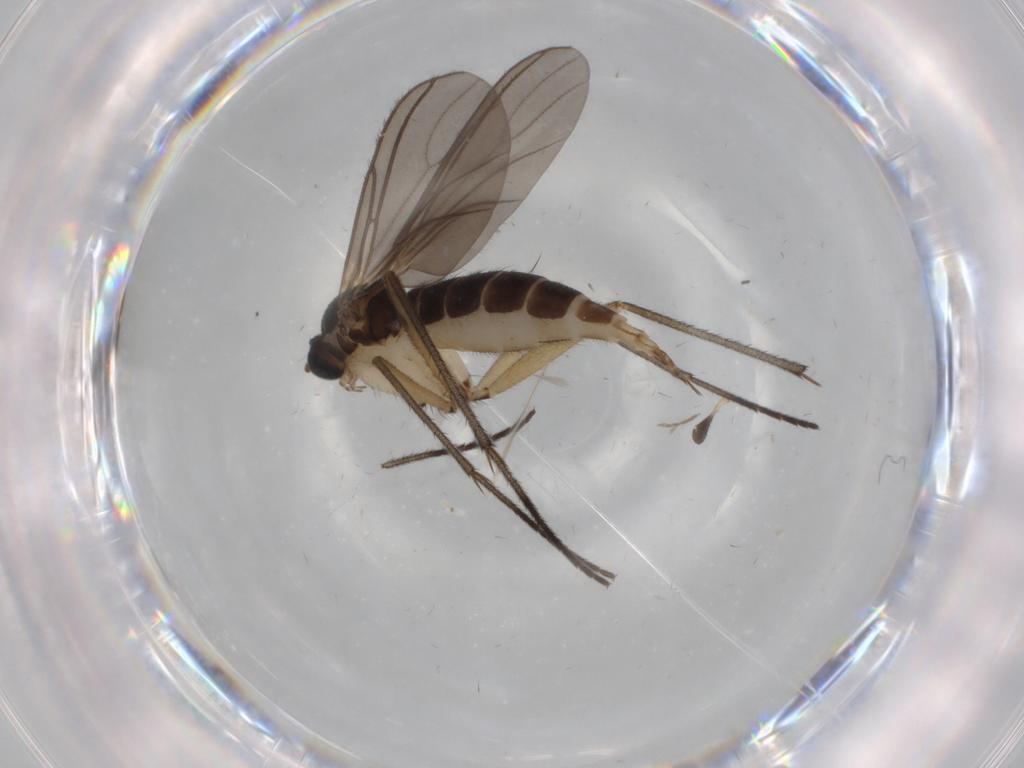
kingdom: Animalia
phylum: Arthropoda
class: Insecta
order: Diptera
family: Sciaridae
